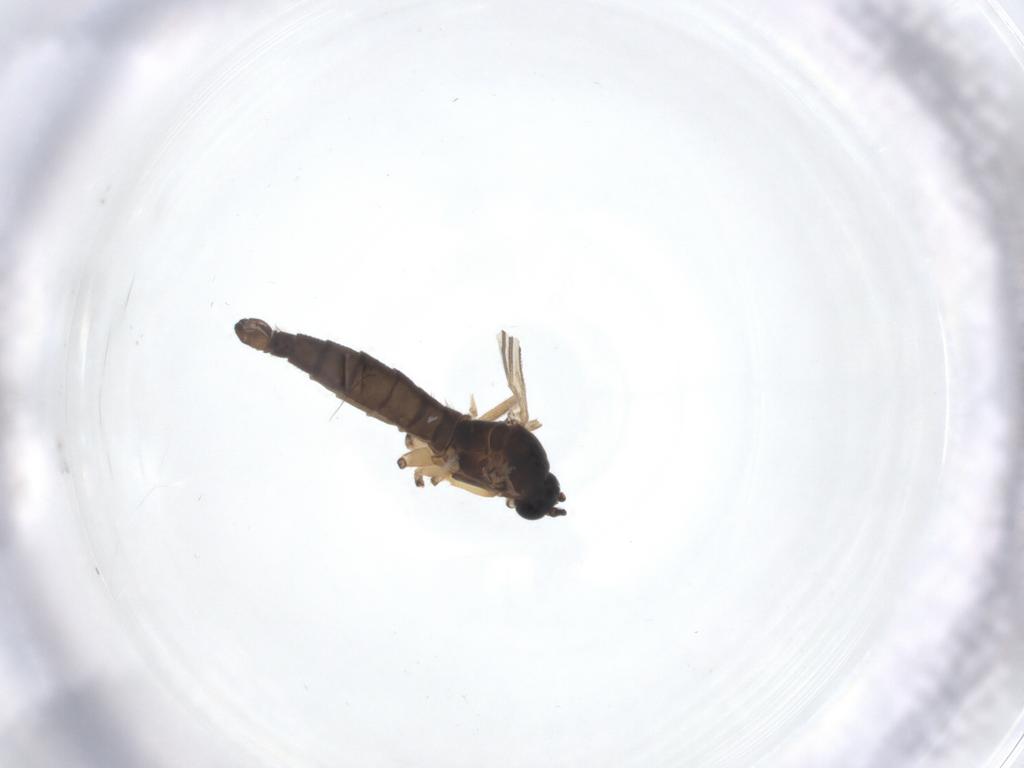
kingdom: Animalia
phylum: Arthropoda
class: Insecta
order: Diptera
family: Sciaridae
